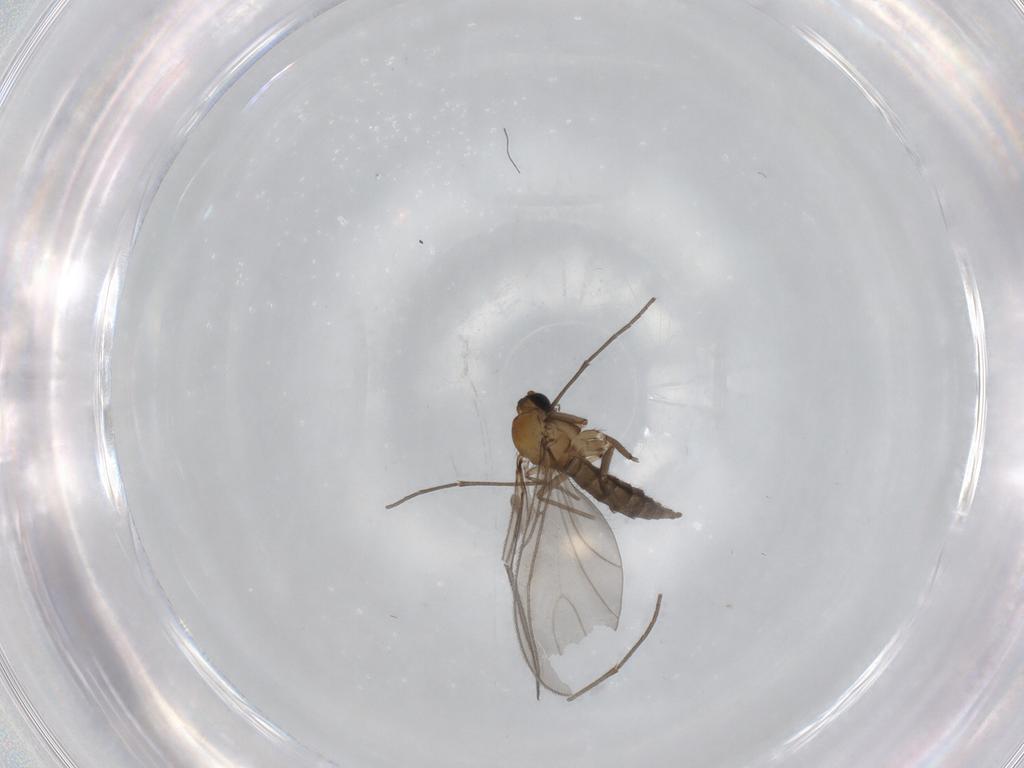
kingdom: Animalia
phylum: Arthropoda
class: Insecta
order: Diptera
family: Sciaridae
